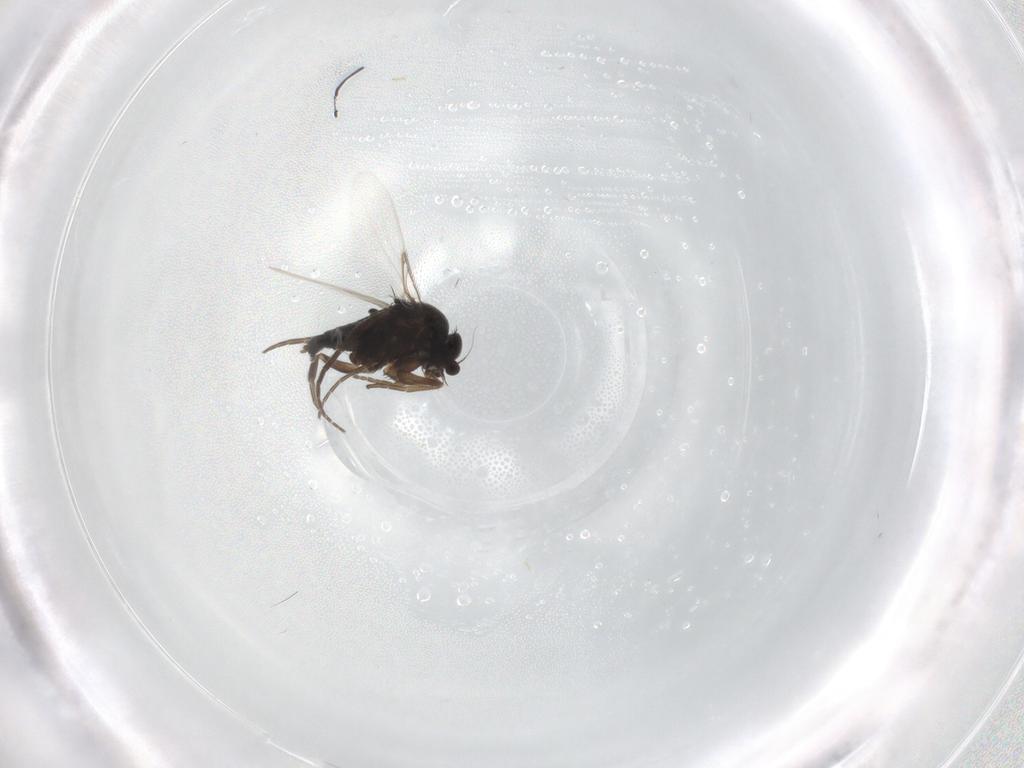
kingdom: Animalia
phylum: Arthropoda
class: Insecta
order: Diptera
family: Phoridae
